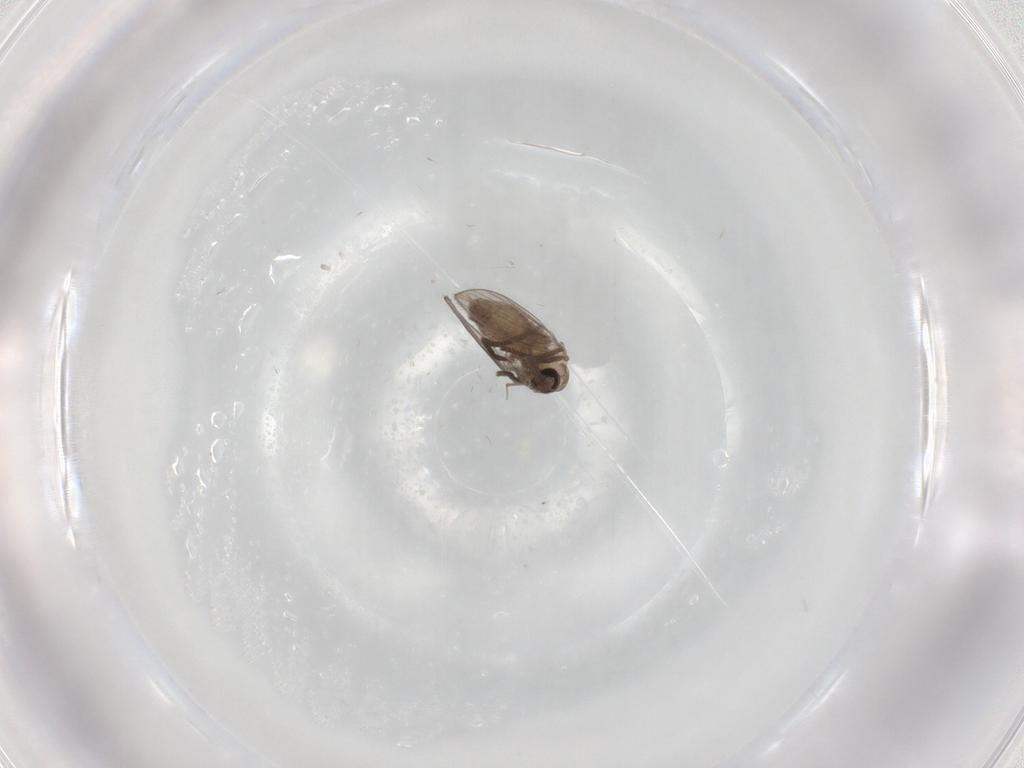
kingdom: Animalia
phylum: Arthropoda
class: Insecta
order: Diptera
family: Psychodidae
